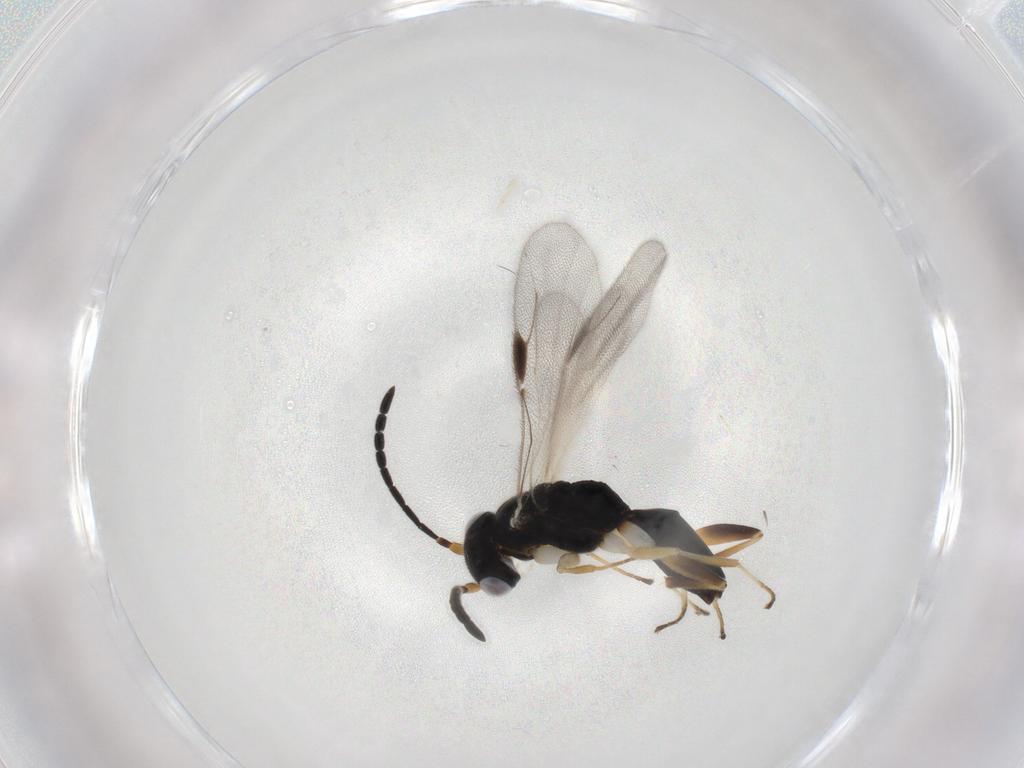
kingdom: Animalia
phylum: Arthropoda
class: Insecta
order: Hymenoptera
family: Dryinidae
